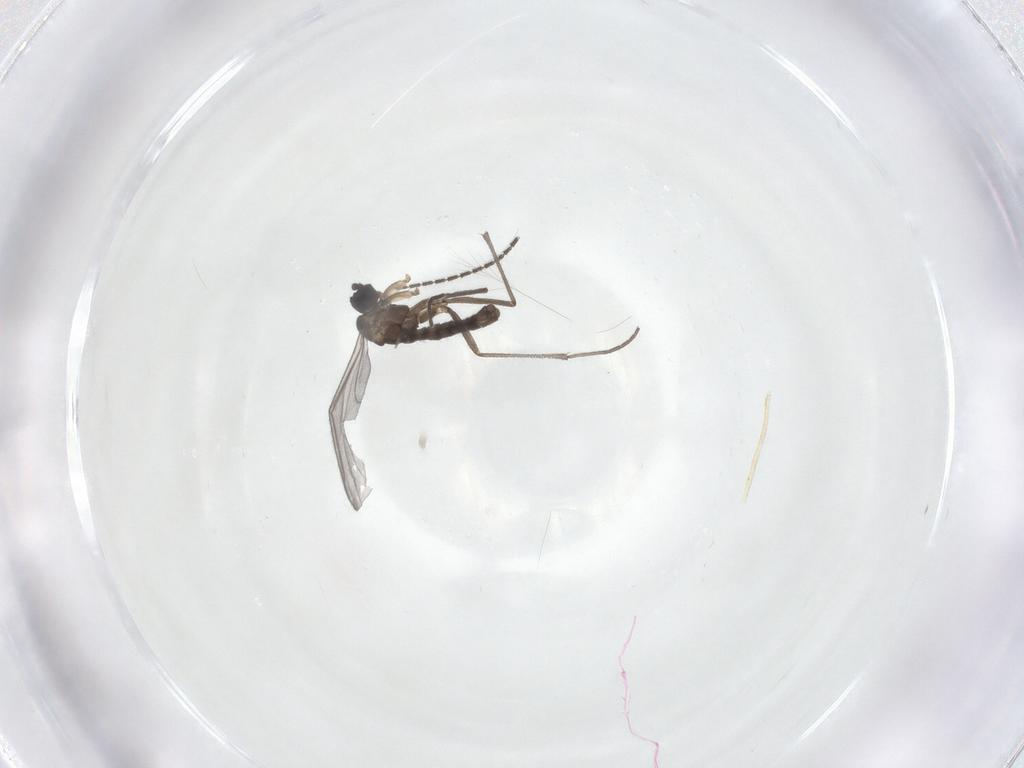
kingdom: Animalia
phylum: Arthropoda
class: Insecta
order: Diptera
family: Sciaridae
